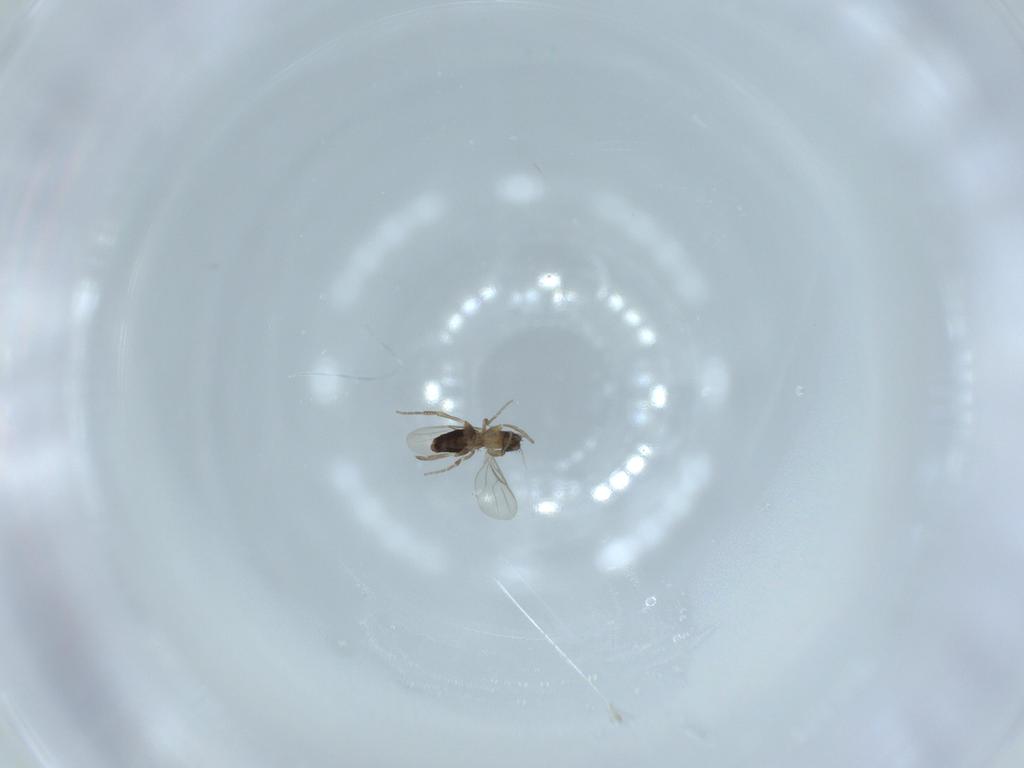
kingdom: Animalia
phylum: Arthropoda
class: Insecta
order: Diptera
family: Phoridae
